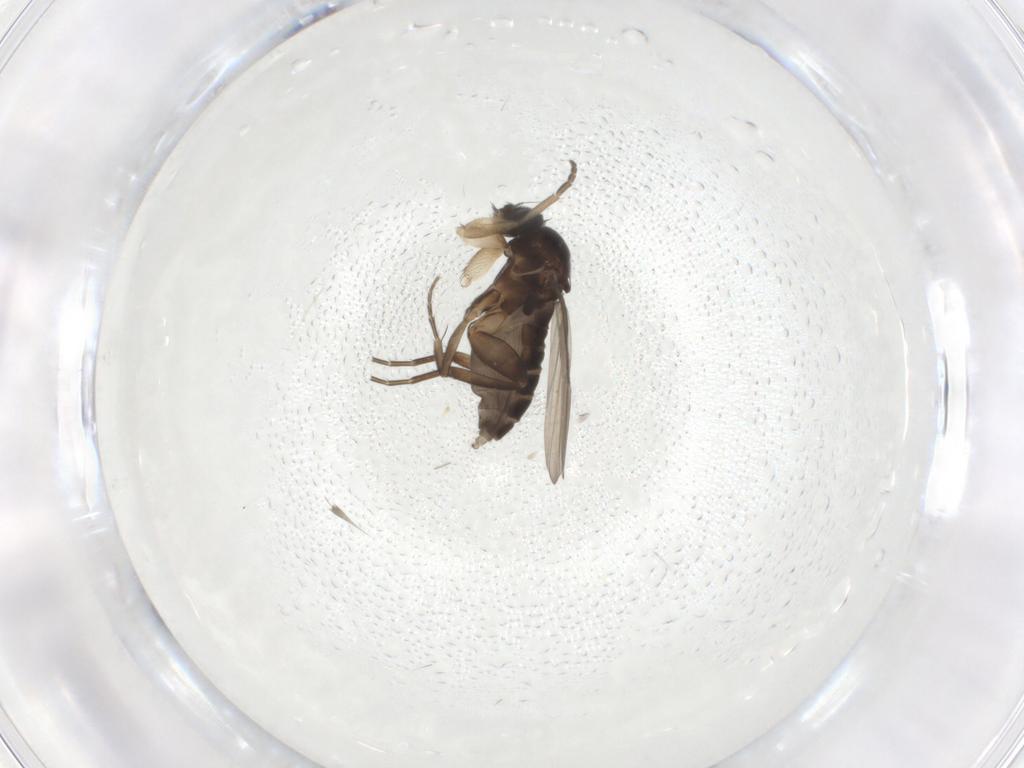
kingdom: Animalia
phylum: Arthropoda
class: Insecta
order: Diptera
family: Phoridae
